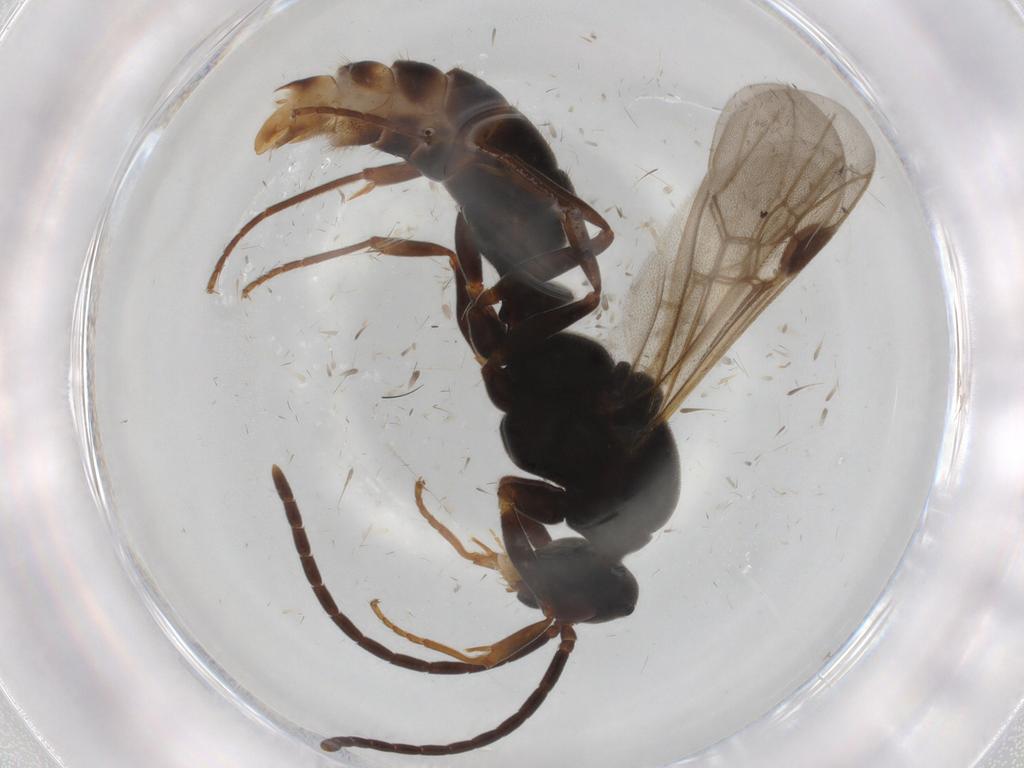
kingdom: Animalia
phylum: Arthropoda
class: Insecta
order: Hymenoptera
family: Formicidae
